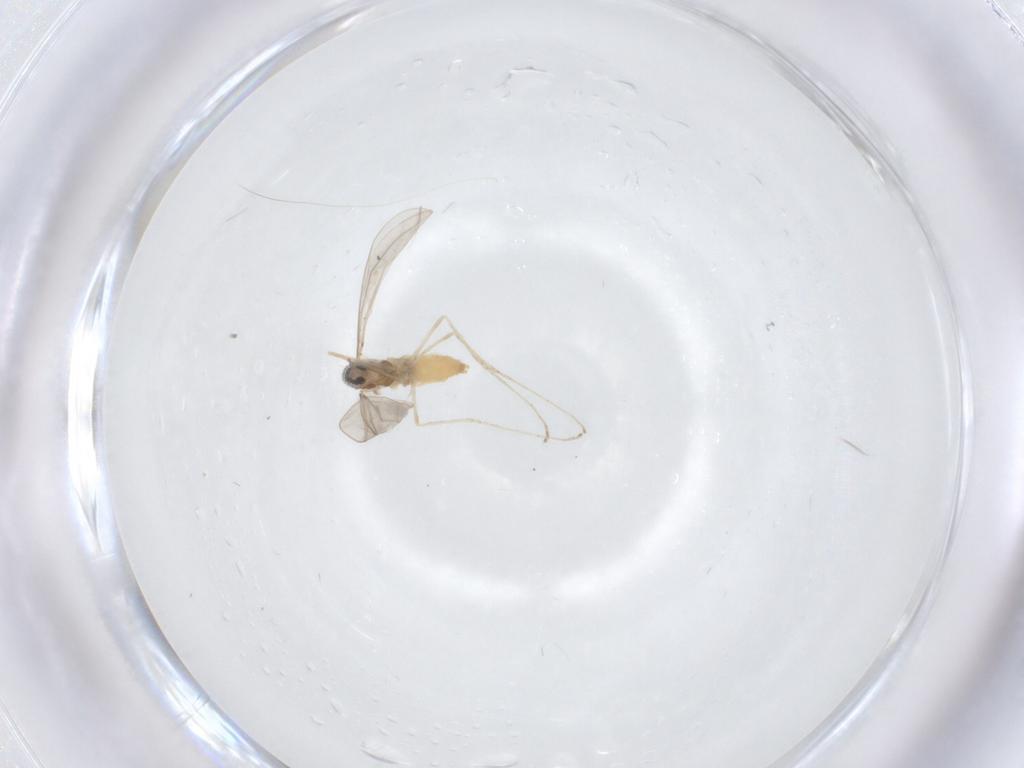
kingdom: Animalia
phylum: Arthropoda
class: Insecta
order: Diptera
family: Cecidomyiidae
